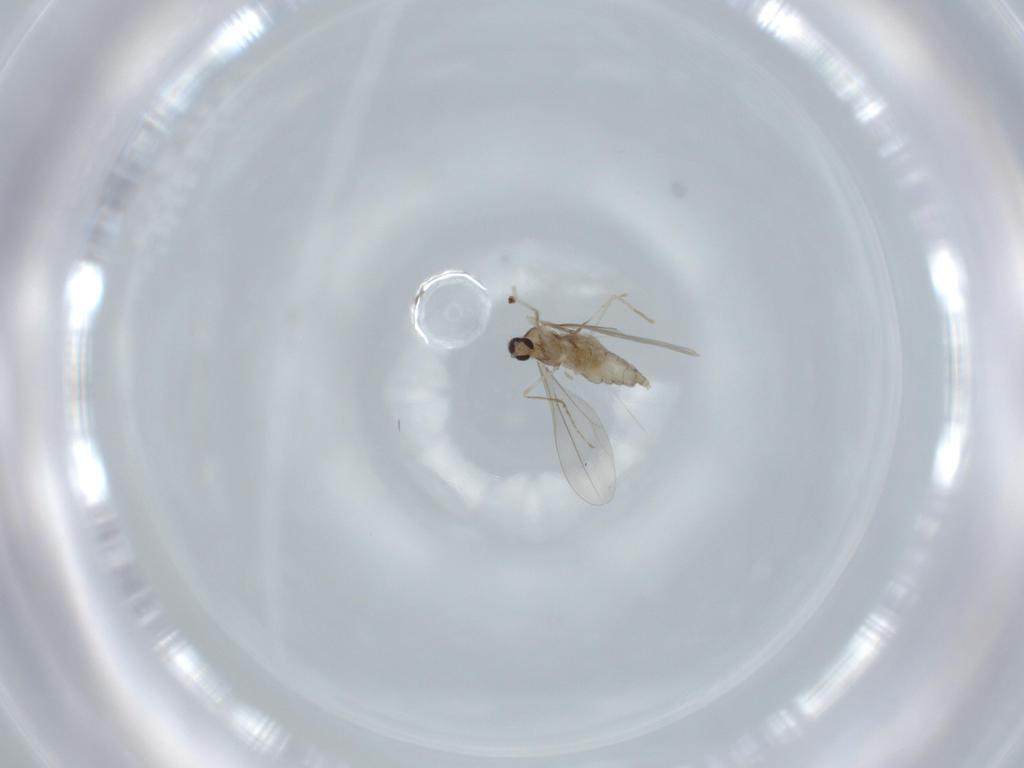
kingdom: Animalia
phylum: Arthropoda
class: Insecta
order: Diptera
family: Cecidomyiidae
